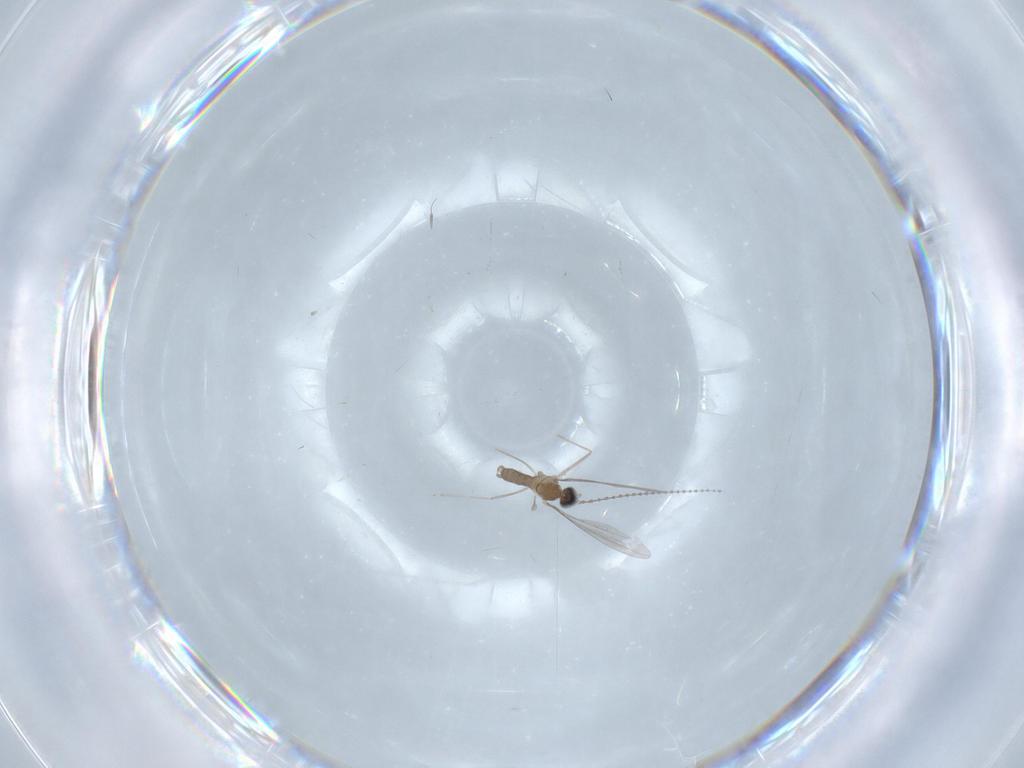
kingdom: Animalia
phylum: Arthropoda
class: Insecta
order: Diptera
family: Cecidomyiidae
